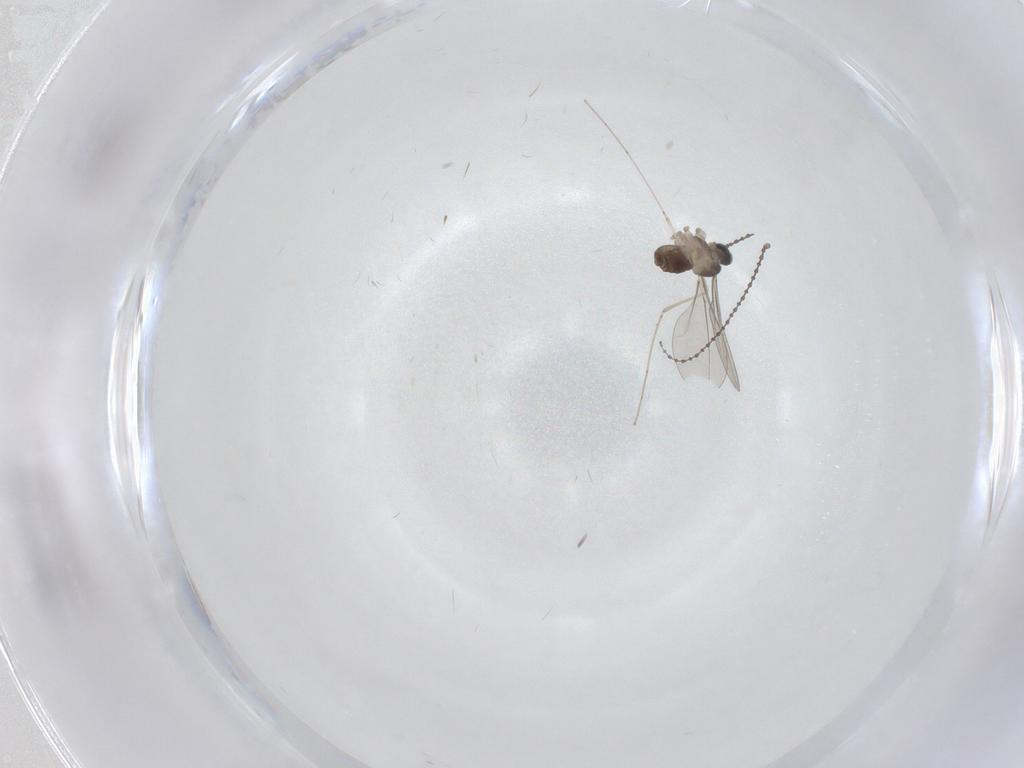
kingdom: Animalia
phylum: Arthropoda
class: Insecta
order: Diptera
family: Cecidomyiidae
